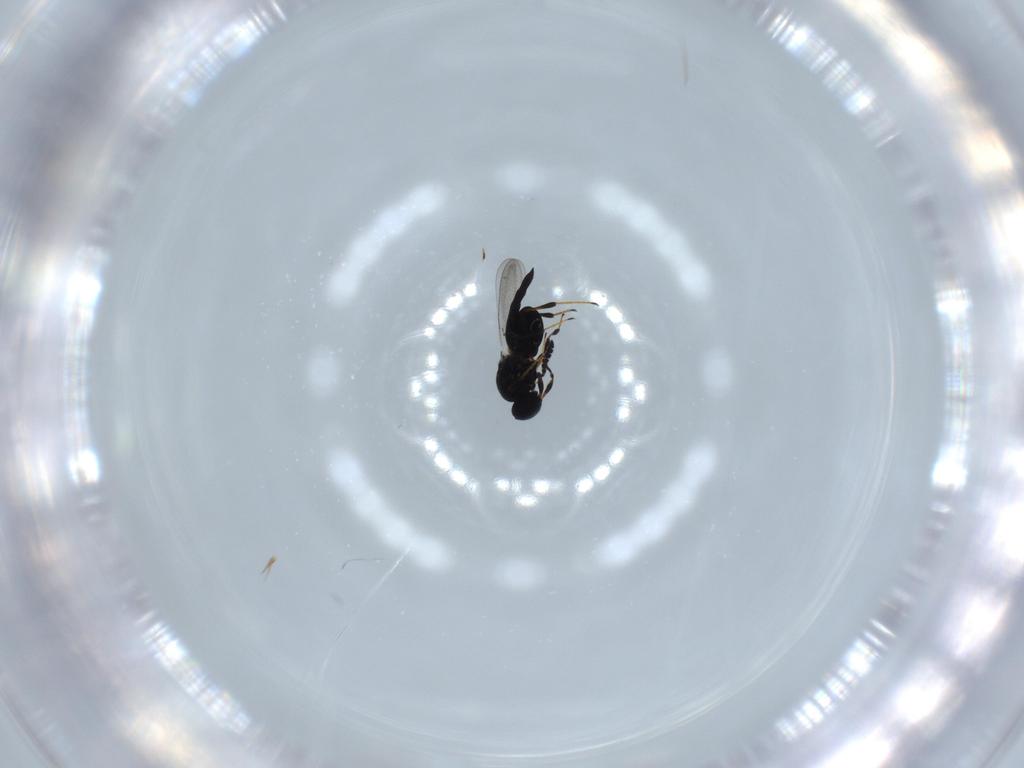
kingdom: Animalia
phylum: Arthropoda
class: Insecta
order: Hymenoptera
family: Platygastridae
